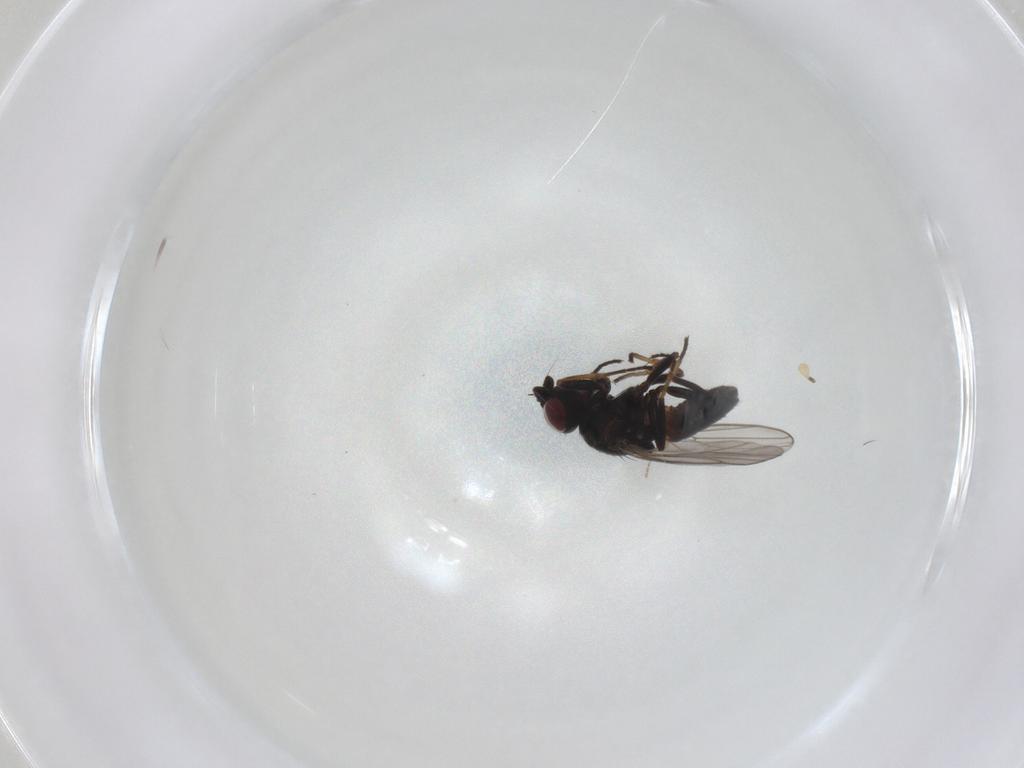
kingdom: Animalia
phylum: Arthropoda
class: Insecta
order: Diptera
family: Chloropidae
